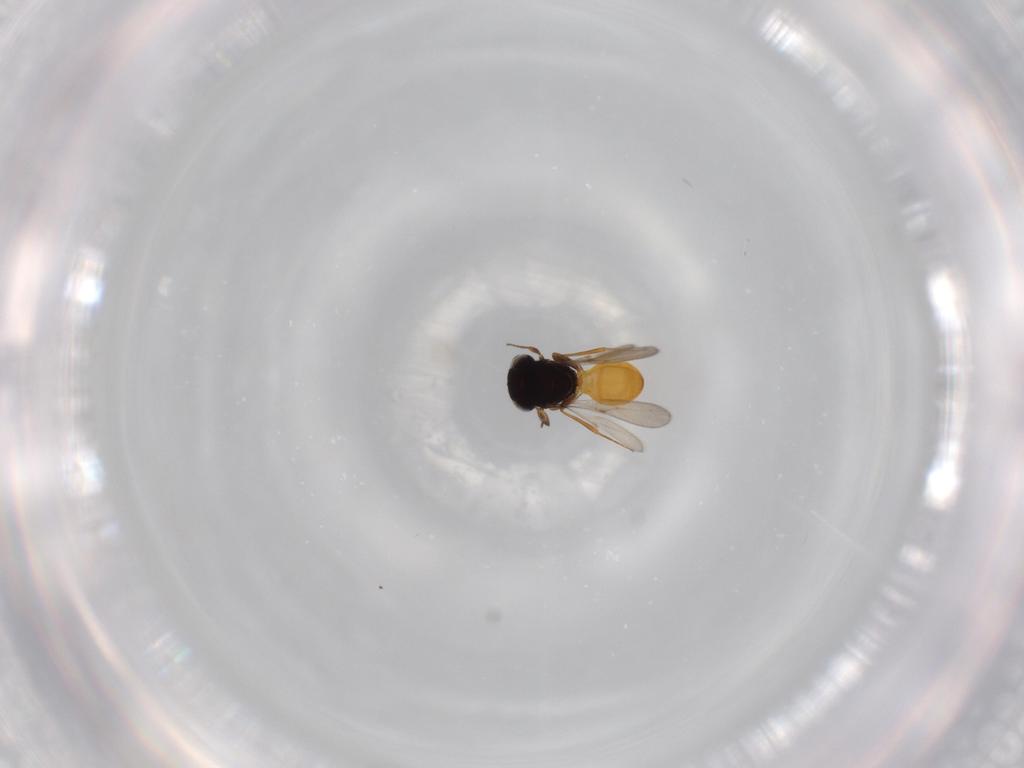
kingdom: Animalia
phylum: Arthropoda
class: Insecta
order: Hymenoptera
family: Scelionidae
